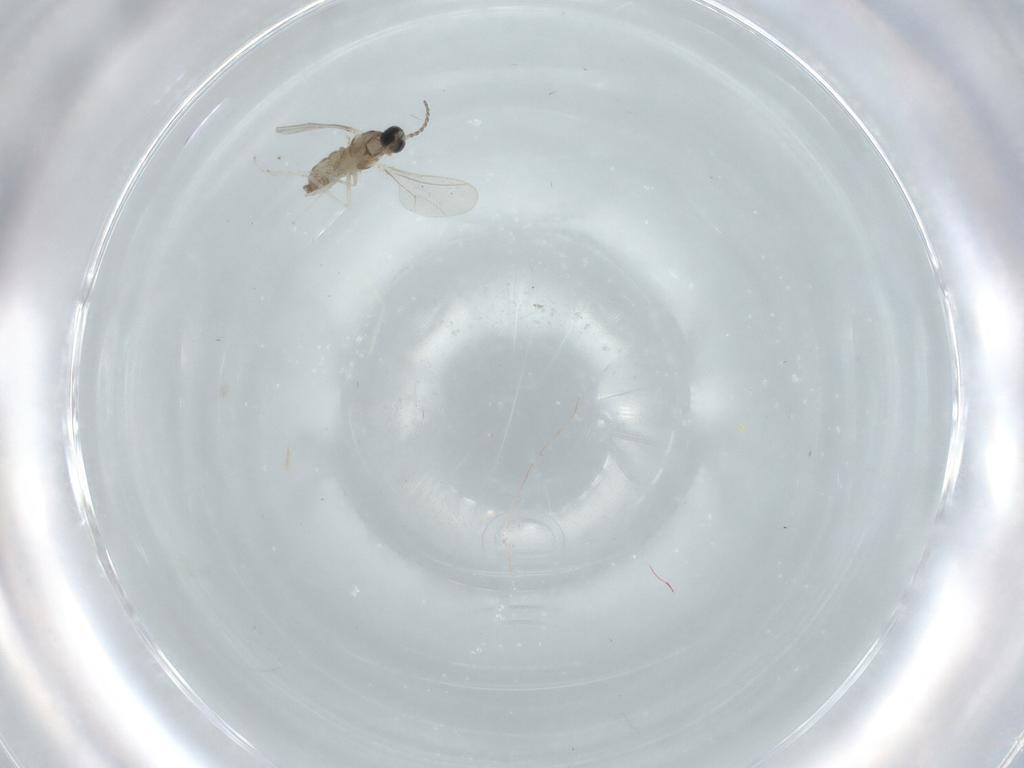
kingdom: Animalia
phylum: Arthropoda
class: Insecta
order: Diptera
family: Cecidomyiidae
